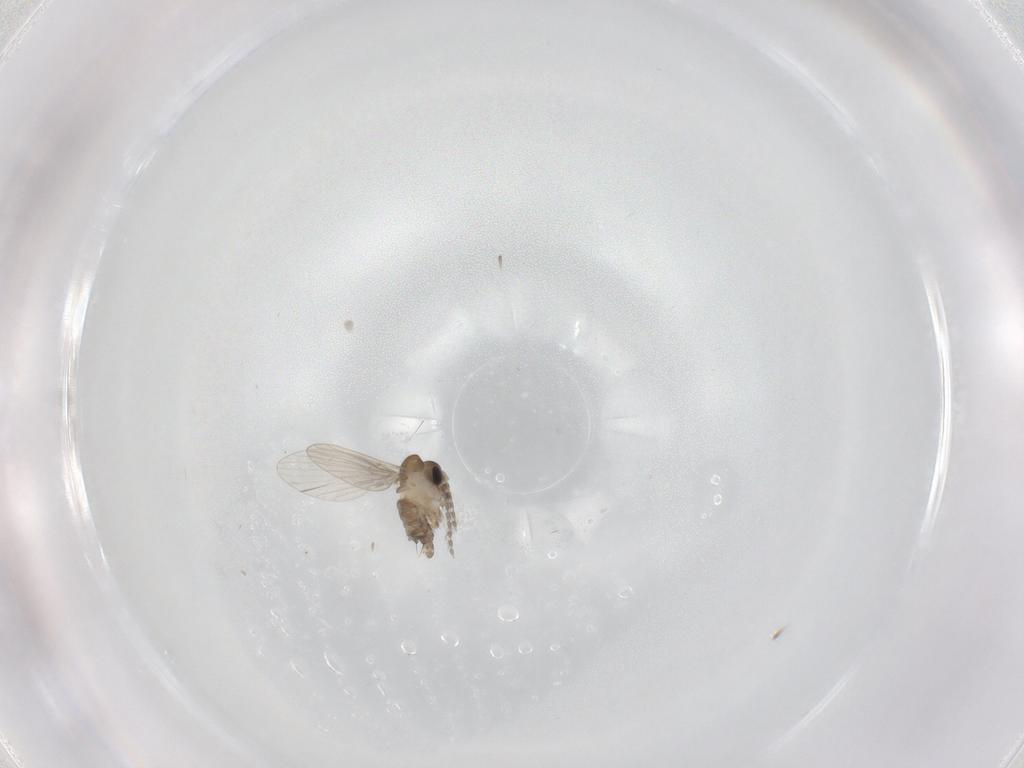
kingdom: Animalia
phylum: Arthropoda
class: Insecta
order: Diptera
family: Psychodidae
